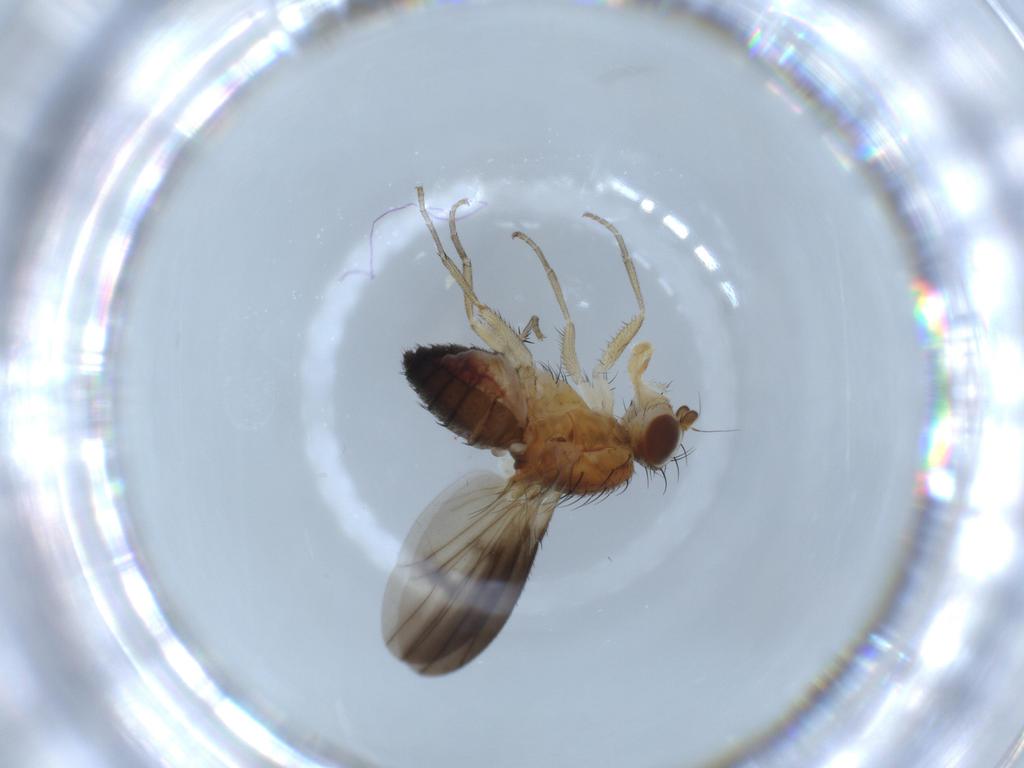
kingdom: Animalia
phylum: Arthropoda
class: Insecta
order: Diptera
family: Heleomyzidae
